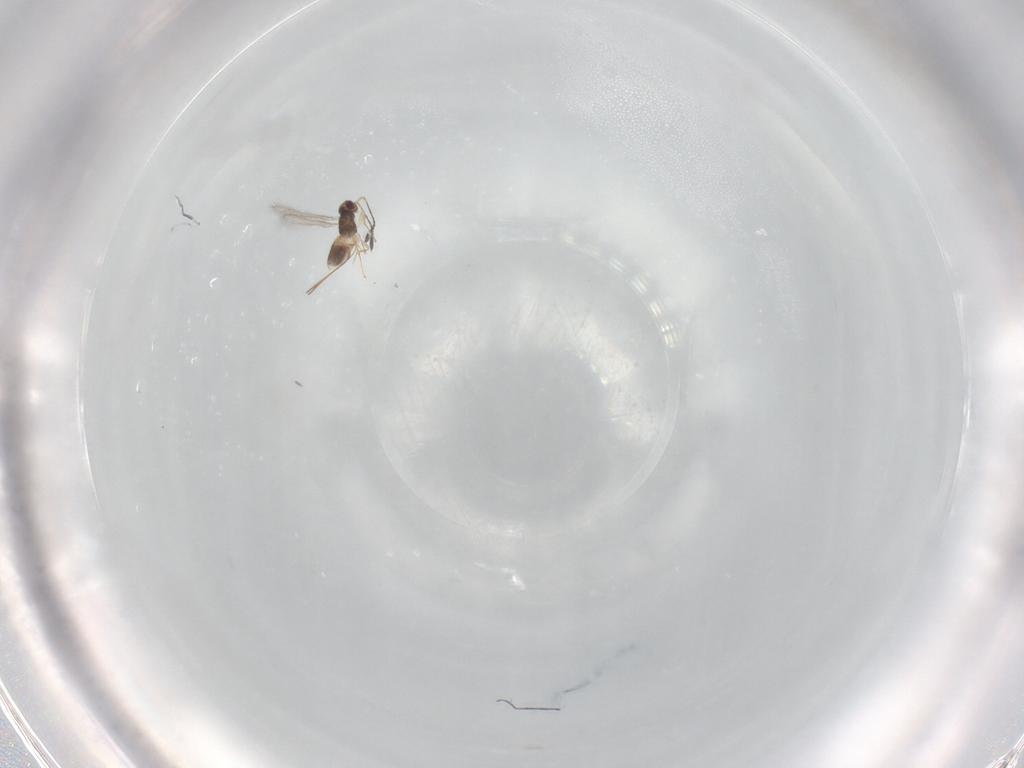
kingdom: Animalia
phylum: Arthropoda
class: Insecta
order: Hymenoptera
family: Mymaridae
